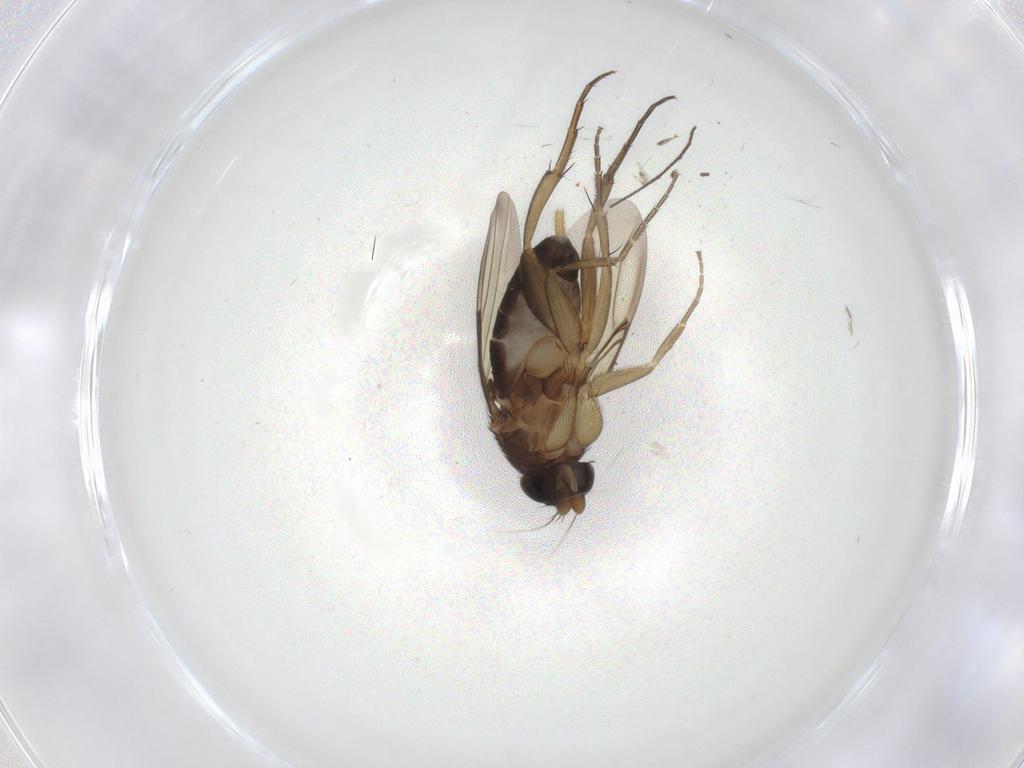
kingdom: Animalia
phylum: Arthropoda
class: Insecta
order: Diptera
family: Phoridae
